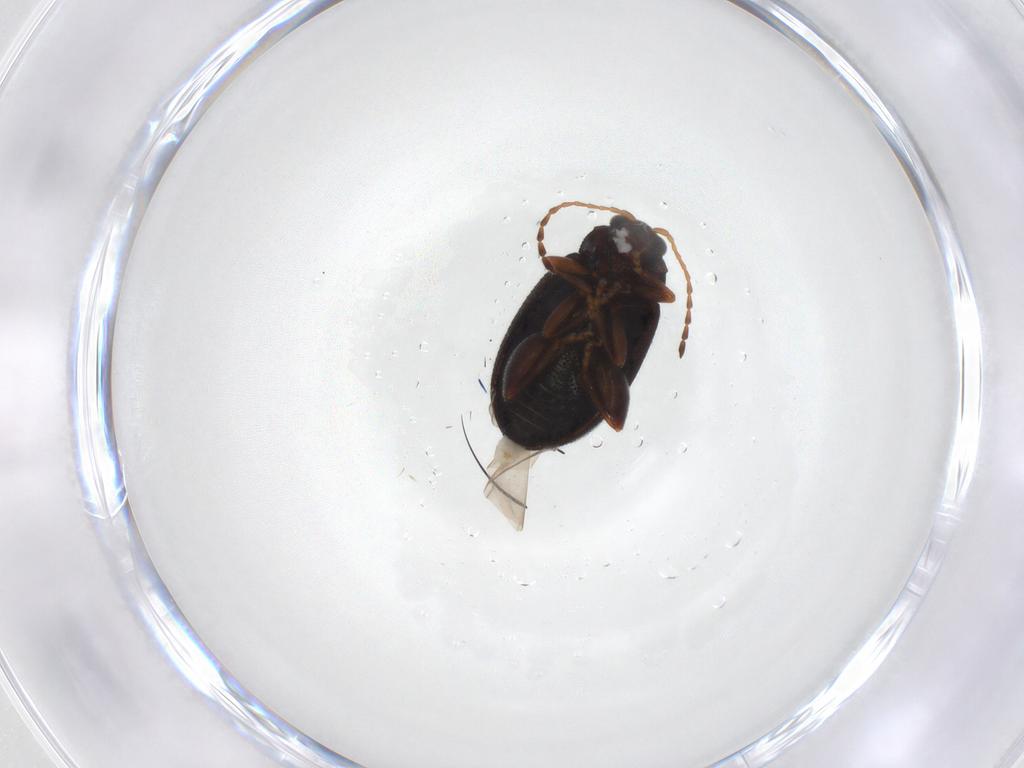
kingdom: Animalia
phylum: Arthropoda
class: Insecta
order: Coleoptera
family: Chrysomelidae
